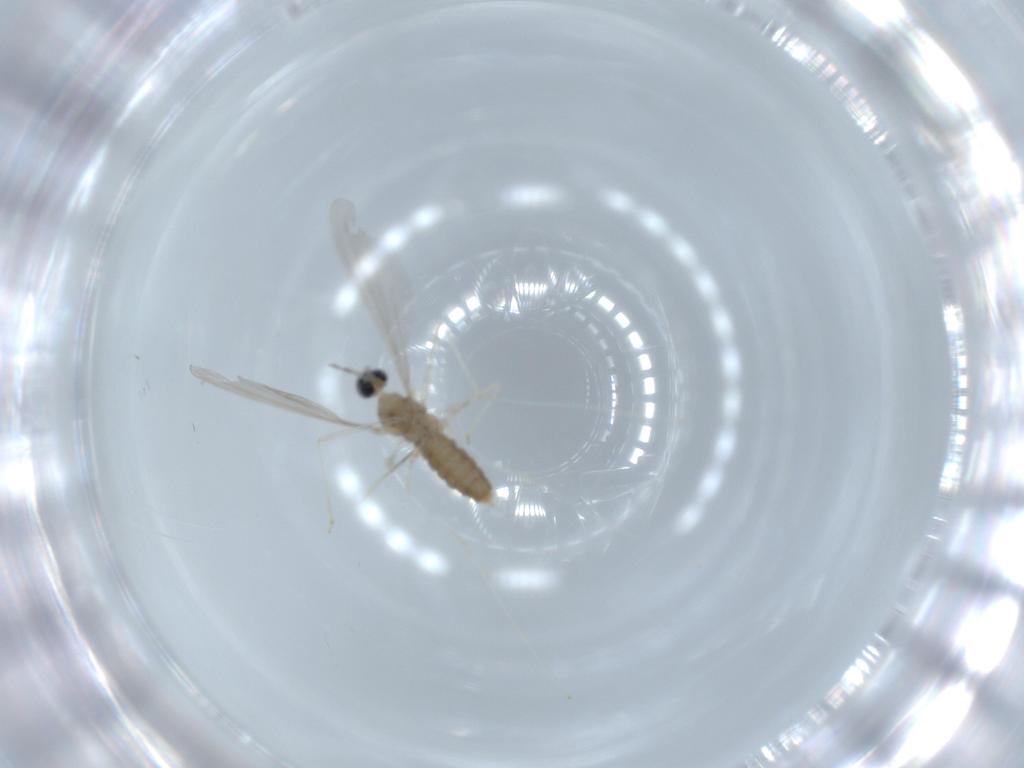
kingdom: Animalia
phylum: Arthropoda
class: Insecta
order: Diptera
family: Cecidomyiidae
